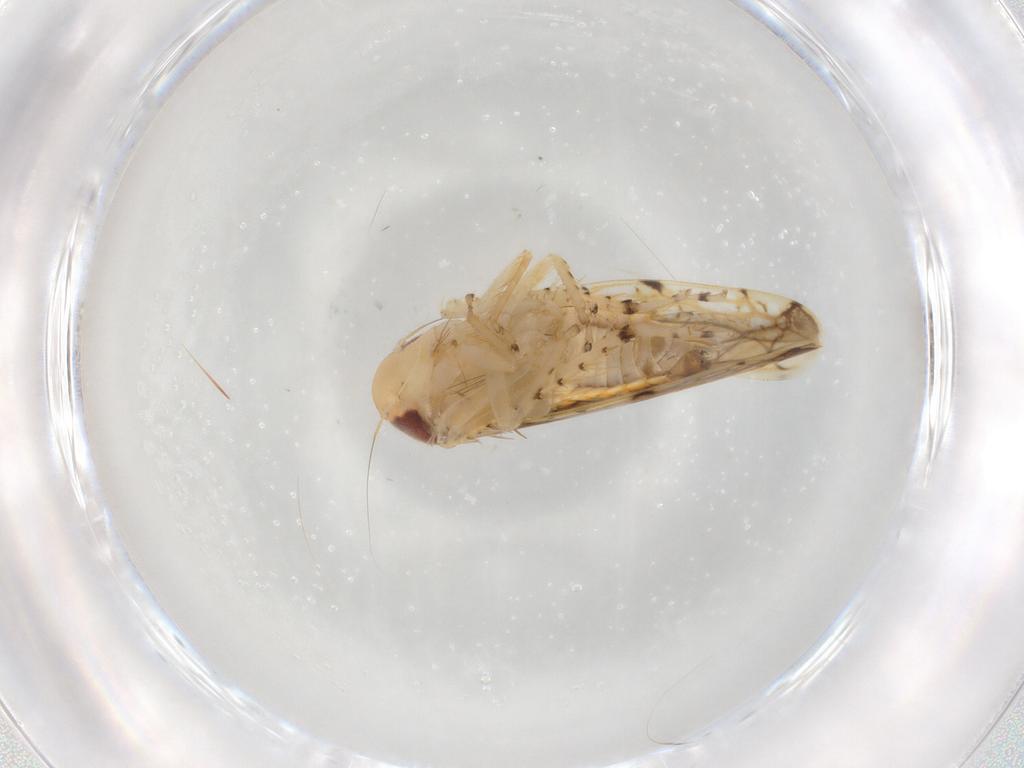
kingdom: Animalia
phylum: Arthropoda
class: Insecta
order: Hemiptera
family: Cicadellidae
